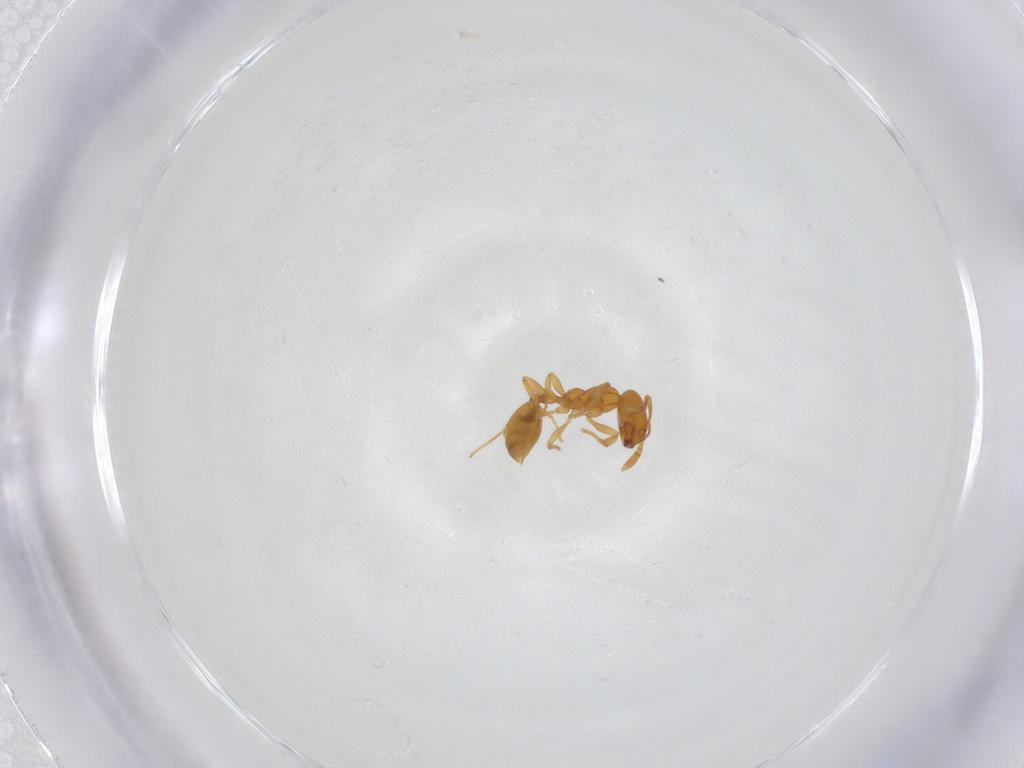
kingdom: Animalia
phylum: Arthropoda
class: Insecta
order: Hymenoptera
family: Formicidae
